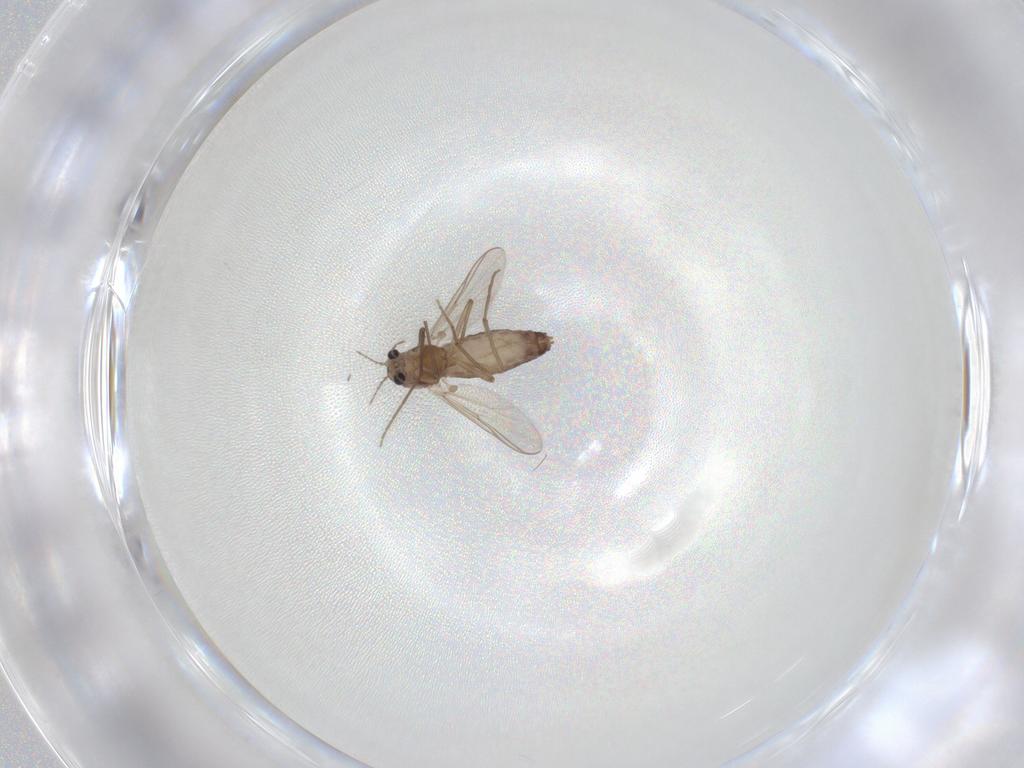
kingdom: Animalia
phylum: Arthropoda
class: Insecta
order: Diptera
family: Chironomidae
